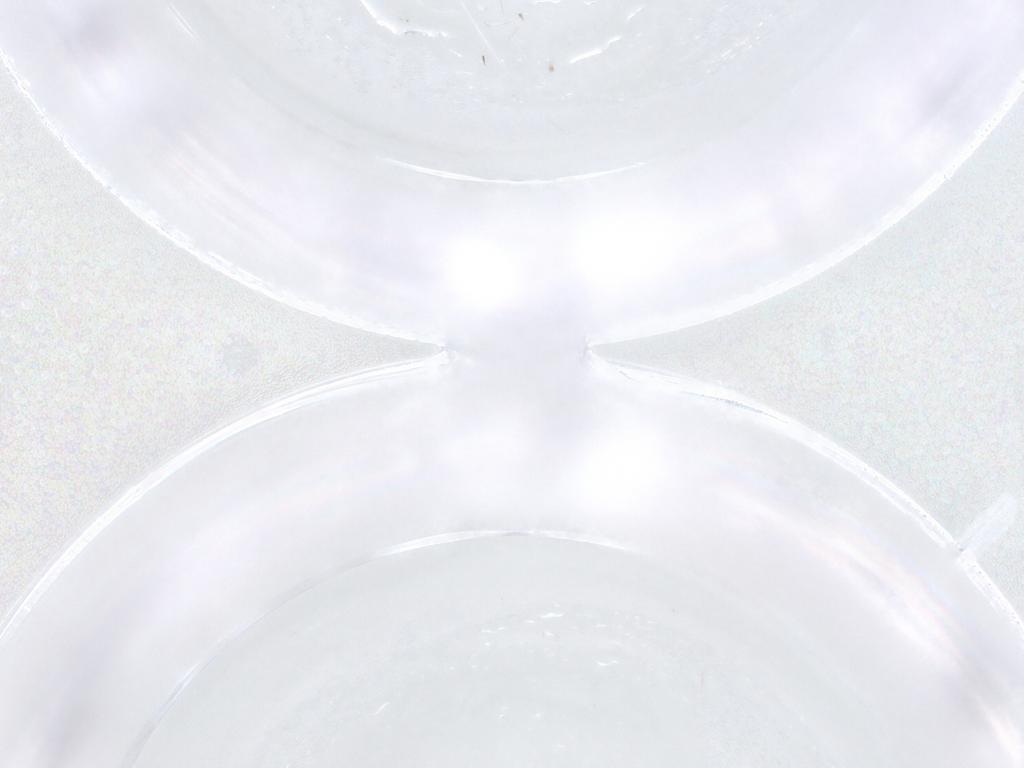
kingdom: Animalia
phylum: Arthropoda
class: Insecta
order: Diptera
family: Psychodidae
